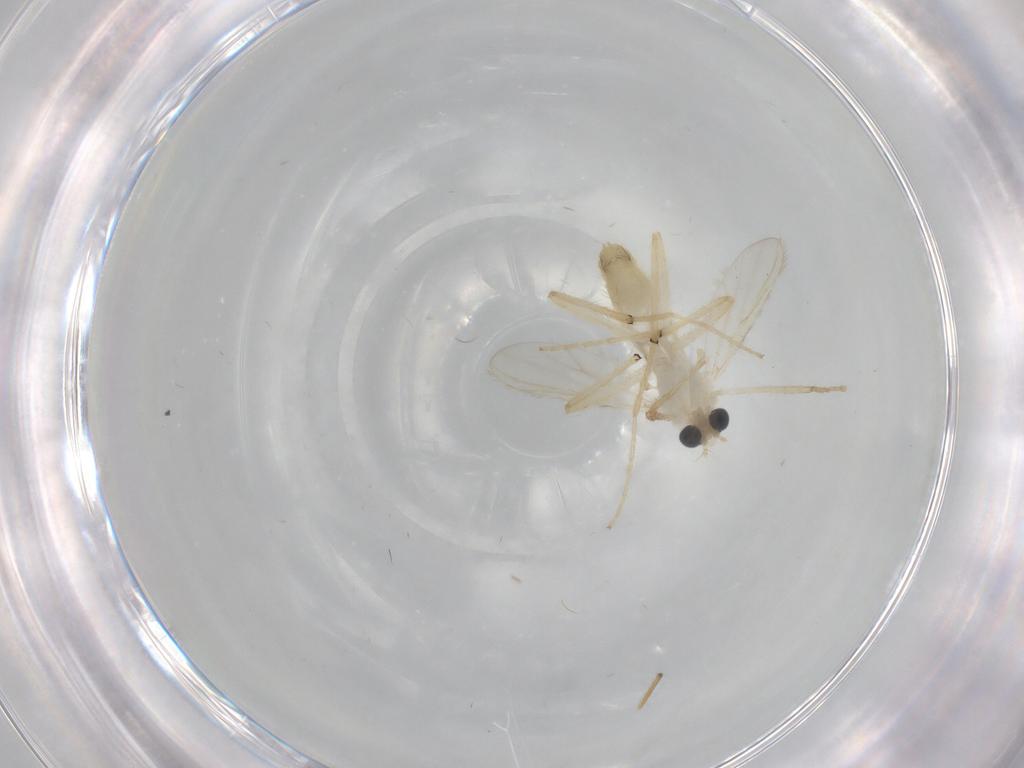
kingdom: Animalia
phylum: Arthropoda
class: Insecta
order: Diptera
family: Chironomidae
